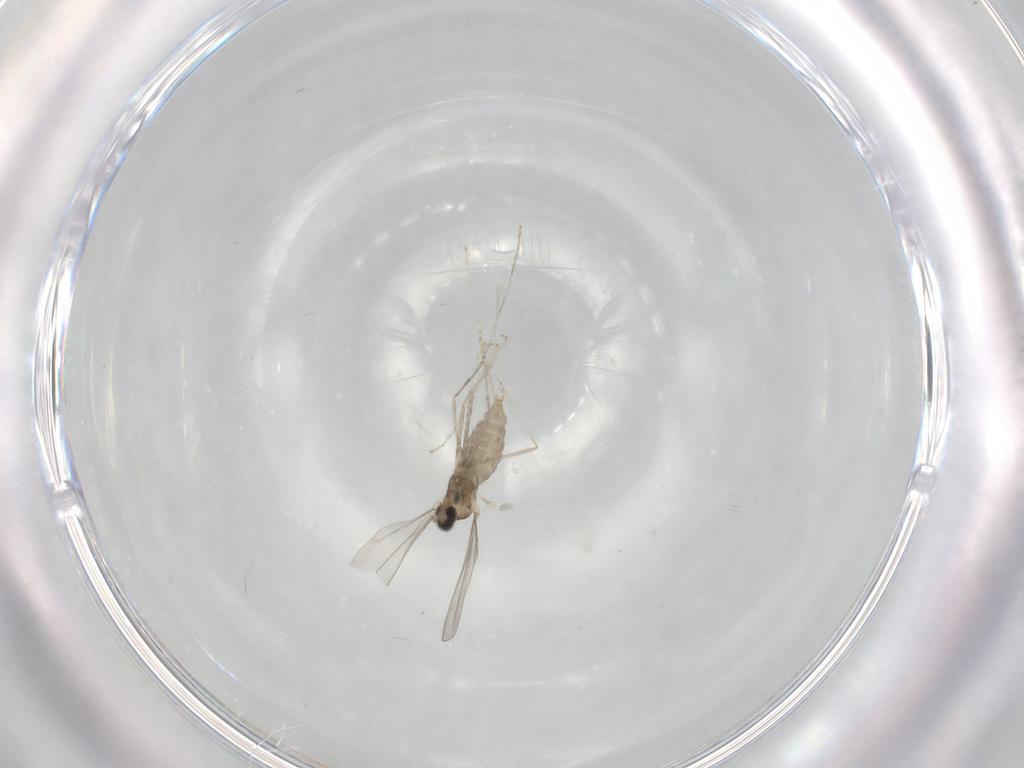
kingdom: Animalia
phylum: Arthropoda
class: Insecta
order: Diptera
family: Cecidomyiidae
